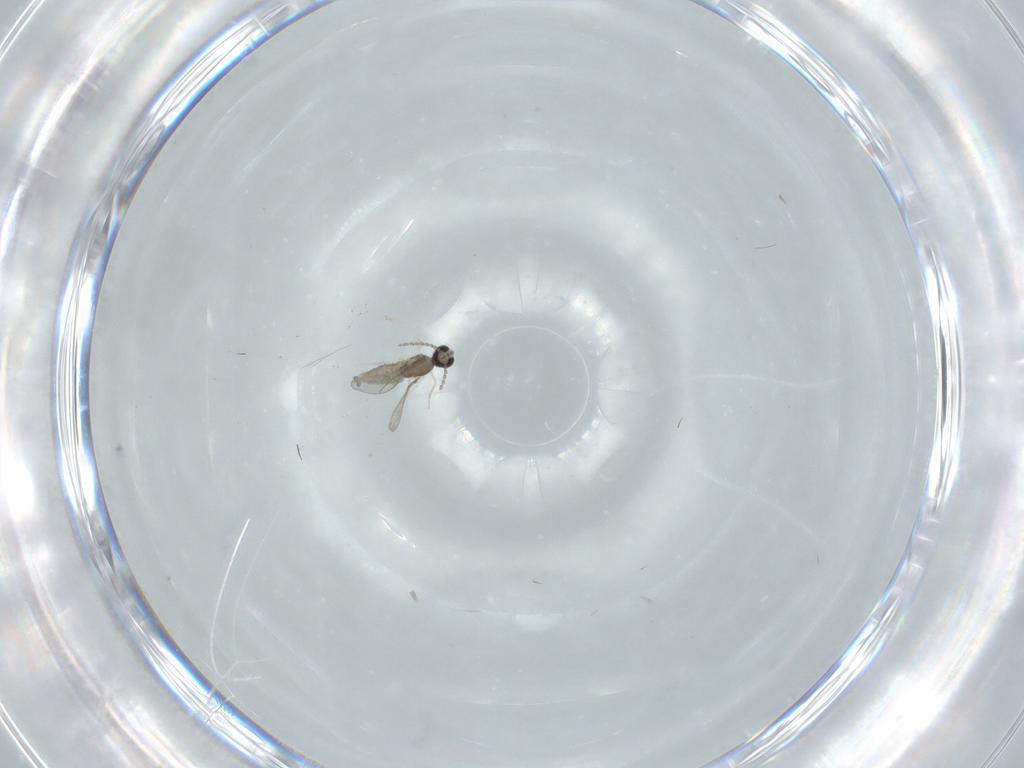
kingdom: Animalia
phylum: Arthropoda
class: Insecta
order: Diptera
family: Cecidomyiidae
